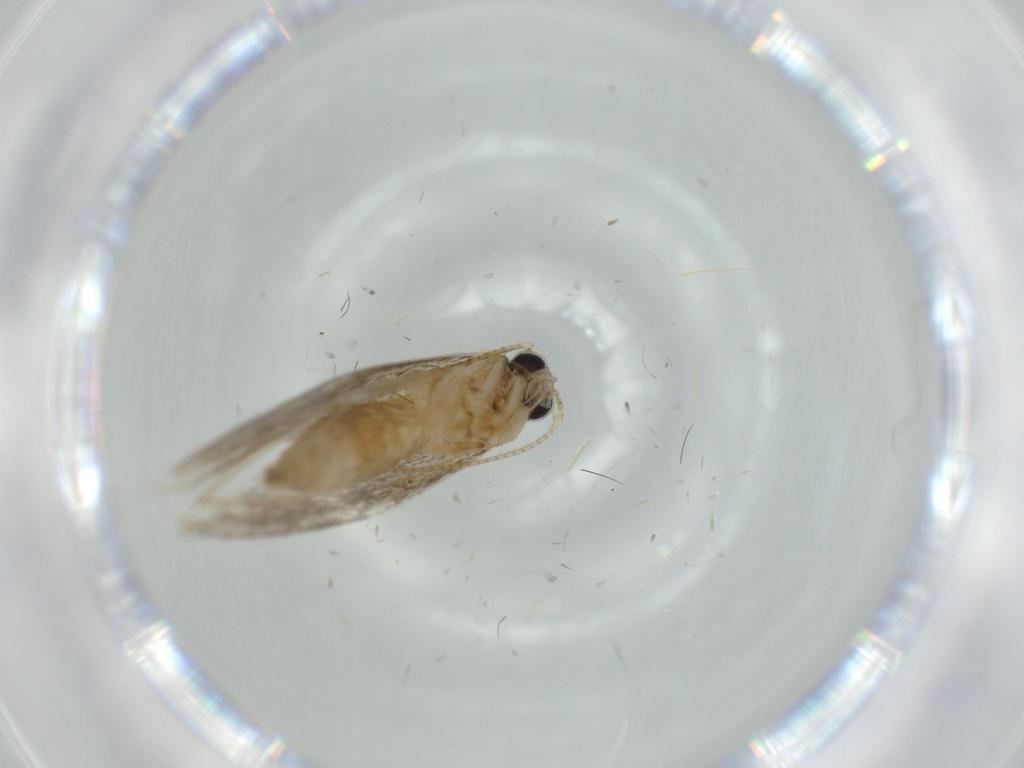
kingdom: Animalia
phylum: Arthropoda
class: Insecta
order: Lepidoptera
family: Tineidae
